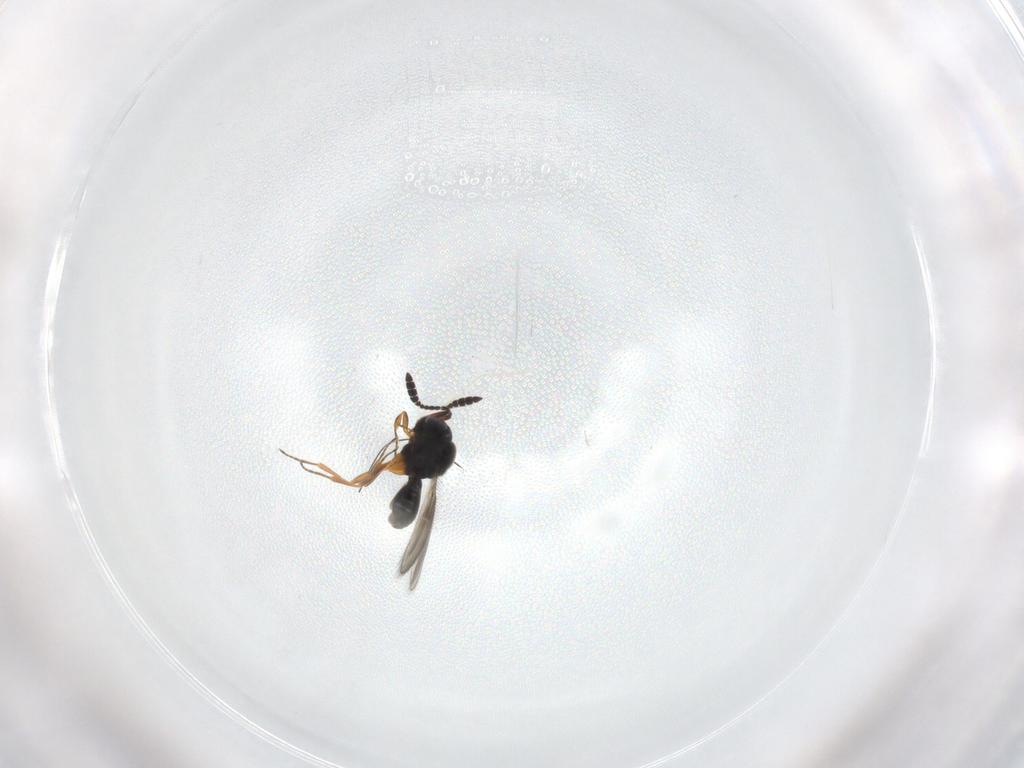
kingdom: Animalia
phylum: Arthropoda
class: Insecta
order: Hymenoptera
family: Scelionidae
